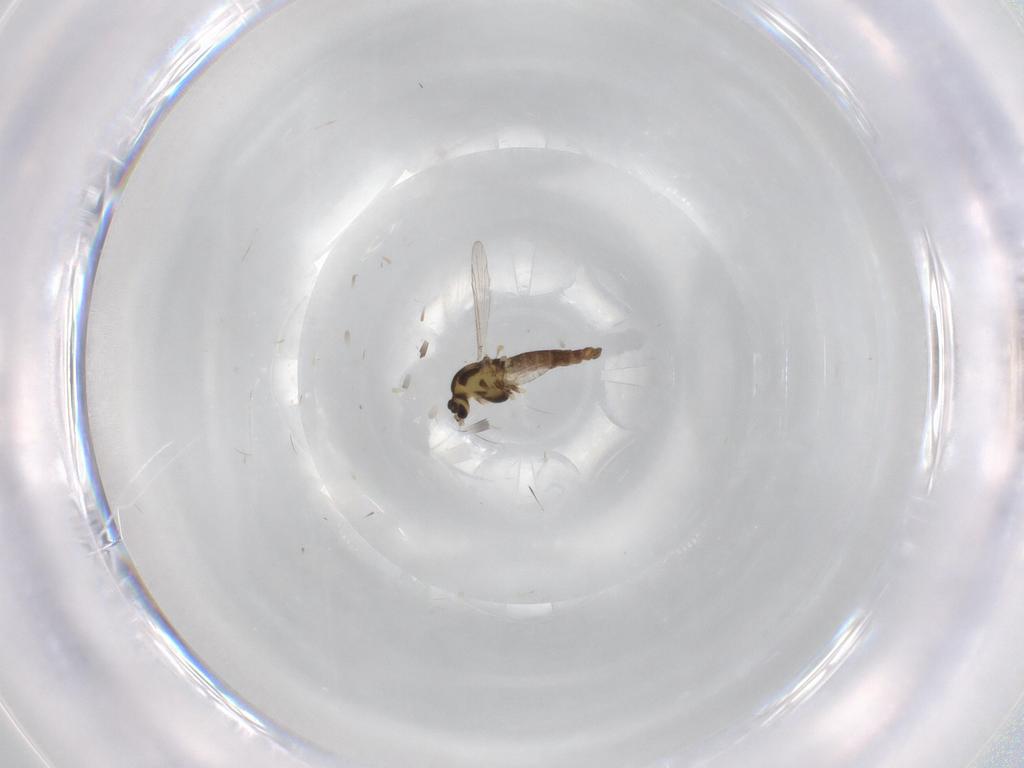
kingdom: Animalia
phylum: Arthropoda
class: Insecta
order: Diptera
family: Chironomidae
